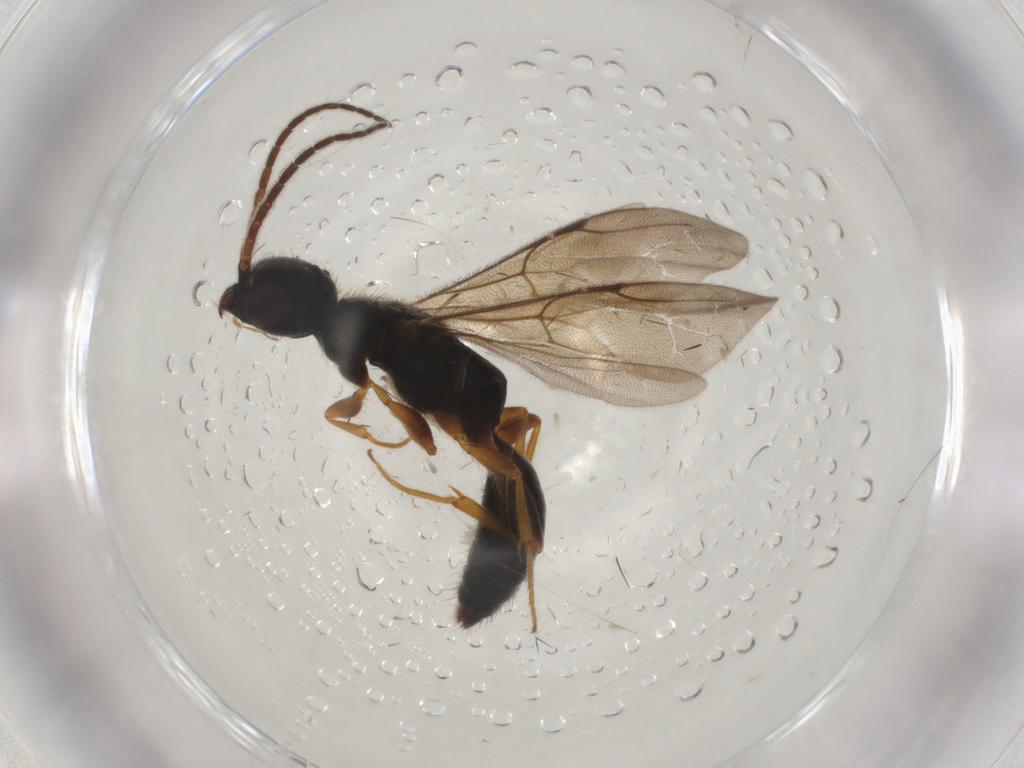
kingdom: Animalia
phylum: Arthropoda
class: Insecta
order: Hymenoptera
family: Bethylidae
